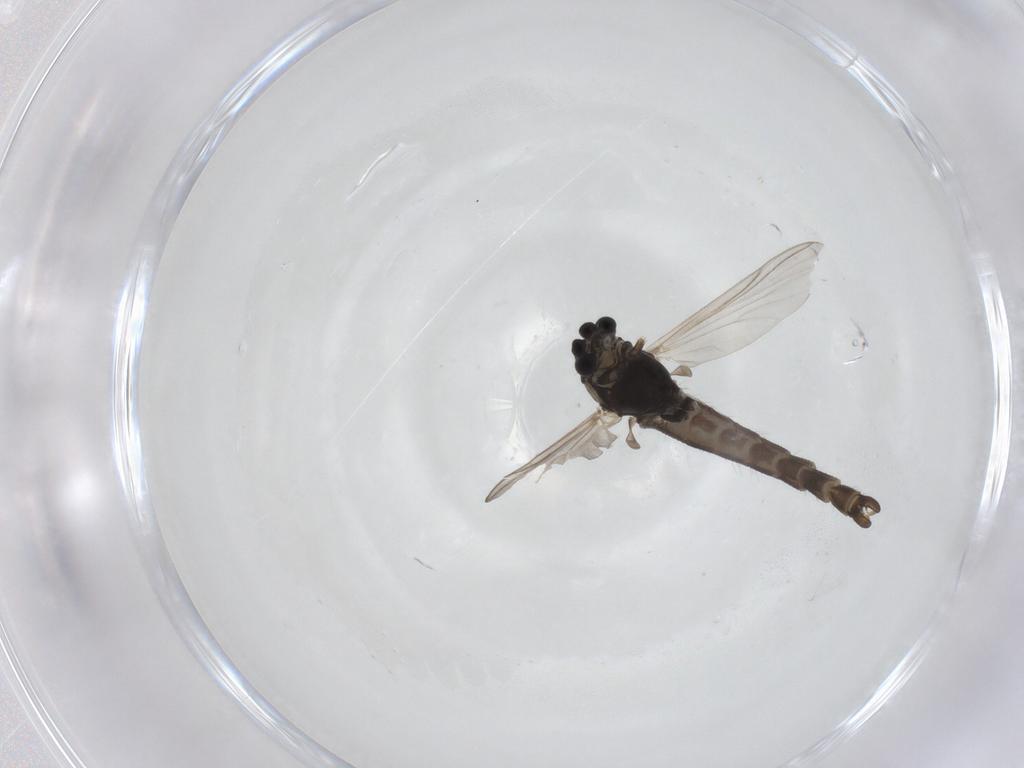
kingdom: Animalia
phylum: Arthropoda
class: Insecta
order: Diptera
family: Chironomidae
